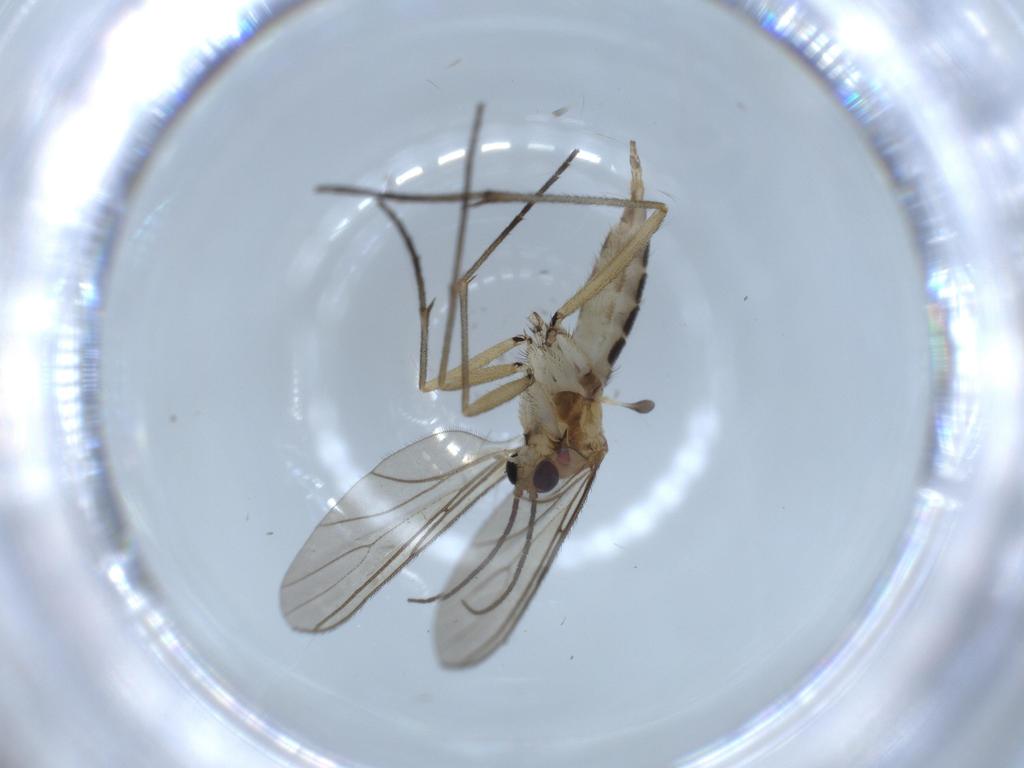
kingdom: Animalia
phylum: Arthropoda
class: Insecta
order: Diptera
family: Sciaridae
